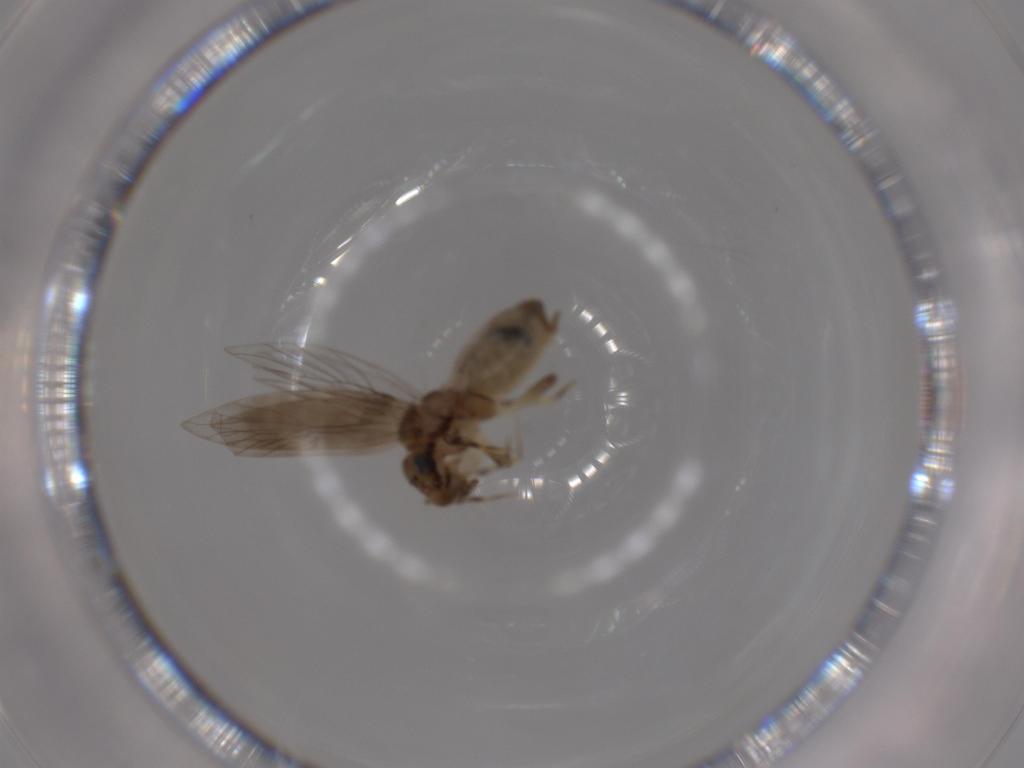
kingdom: Animalia
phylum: Arthropoda
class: Insecta
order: Psocodea
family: Lepidopsocidae
